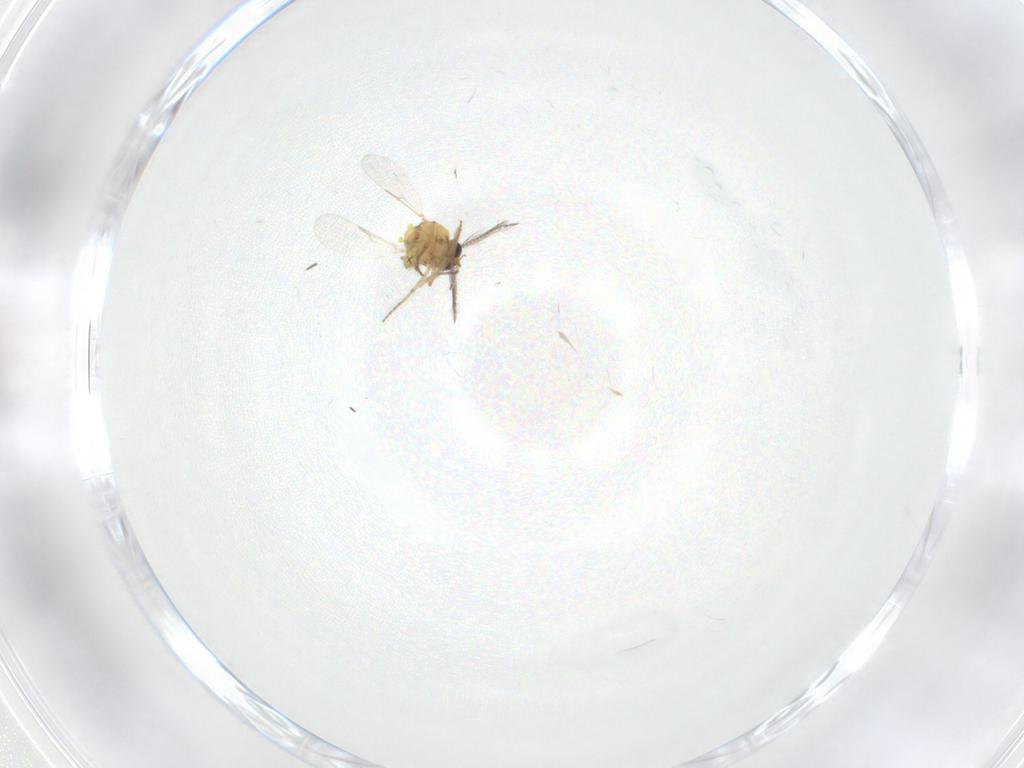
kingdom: Animalia
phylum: Arthropoda
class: Insecta
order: Diptera
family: Ceratopogonidae
